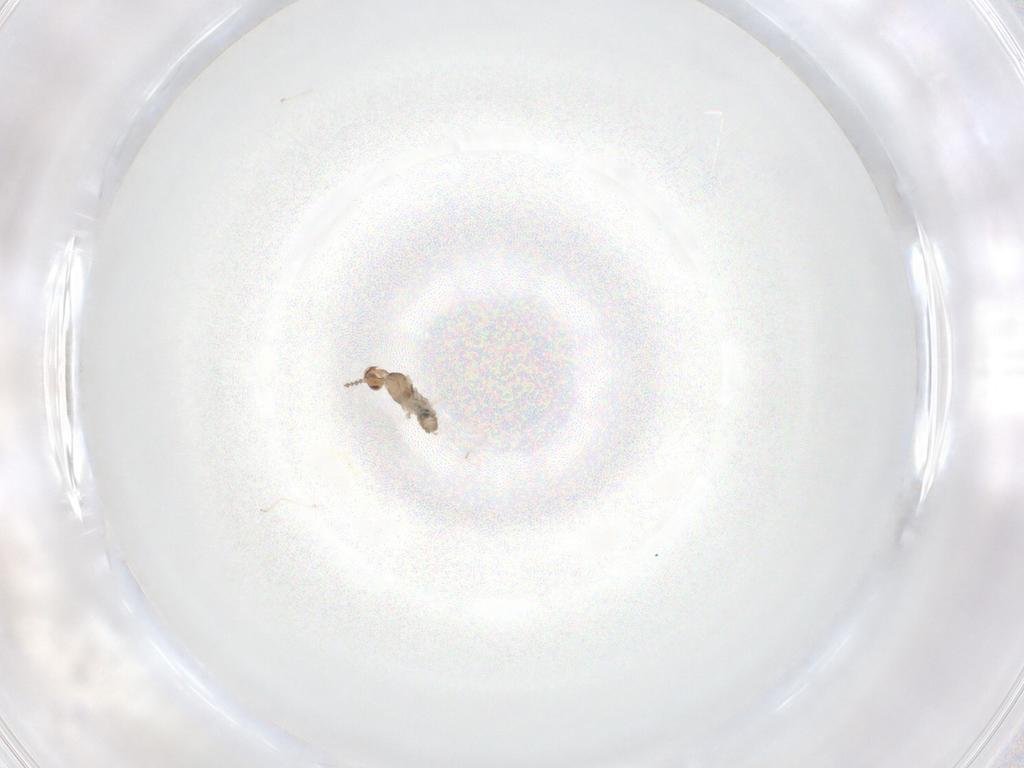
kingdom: Animalia
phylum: Arthropoda
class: Insecta
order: Diptera
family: Cecidomyiidae
